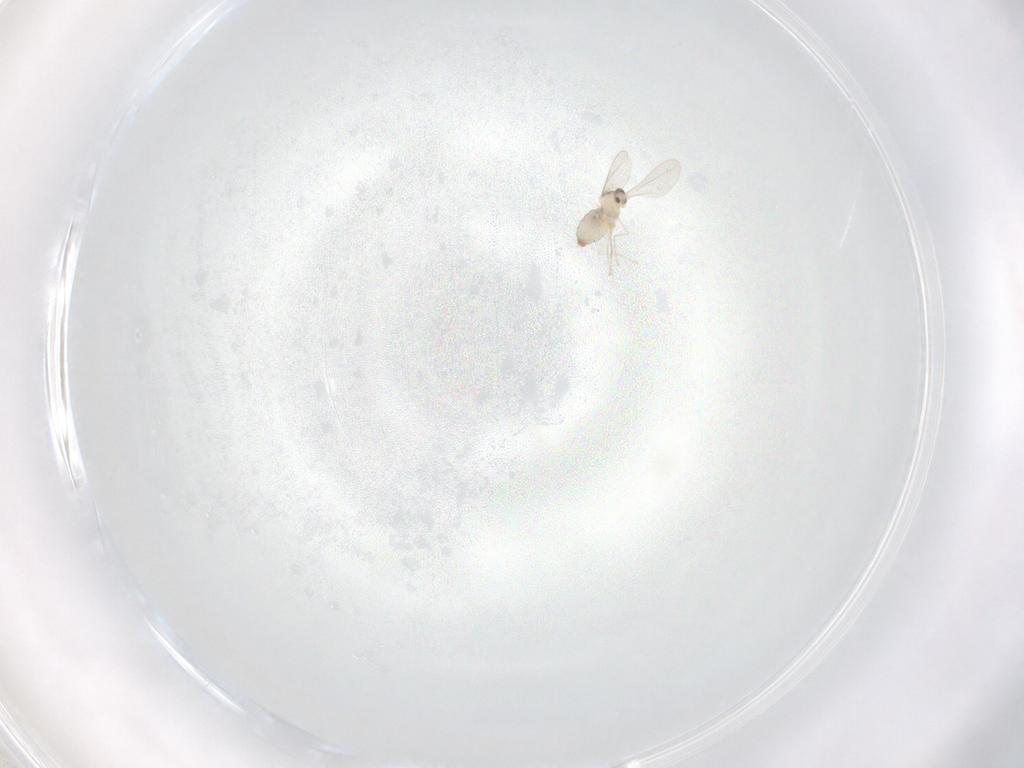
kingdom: Animalia
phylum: Arthropoda
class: Insecta
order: Diptera
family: Cecidomyiidae
